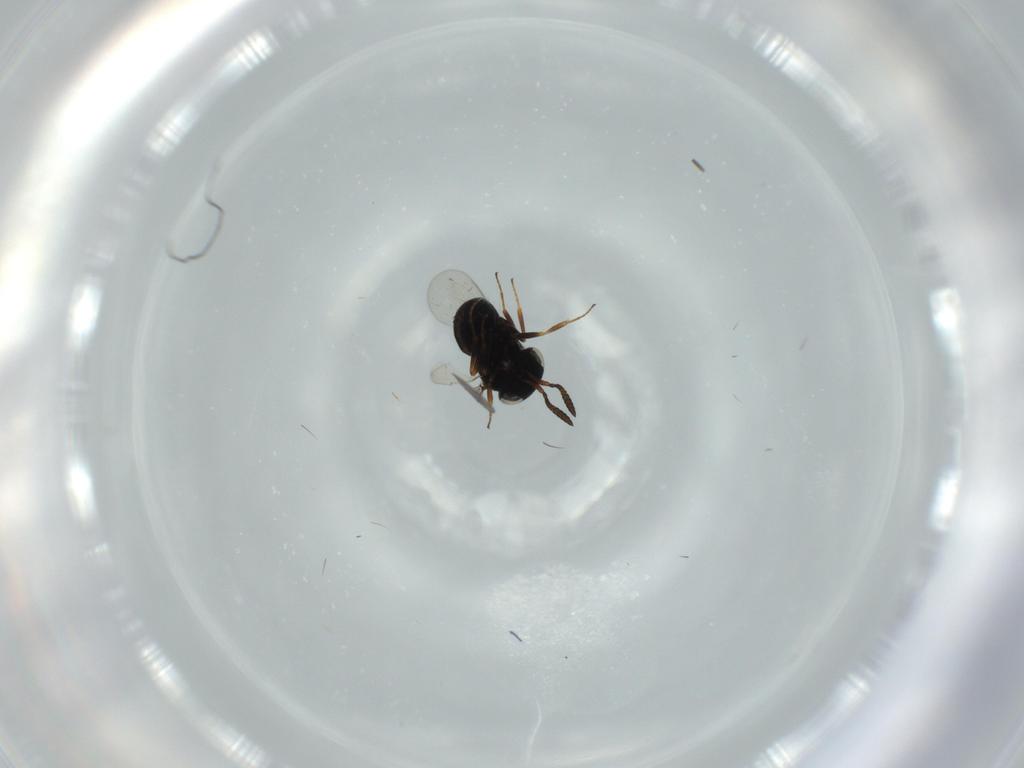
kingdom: Animalia
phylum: Arthropoda
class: Insecta
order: Hymenoptera
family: Scelionidae
